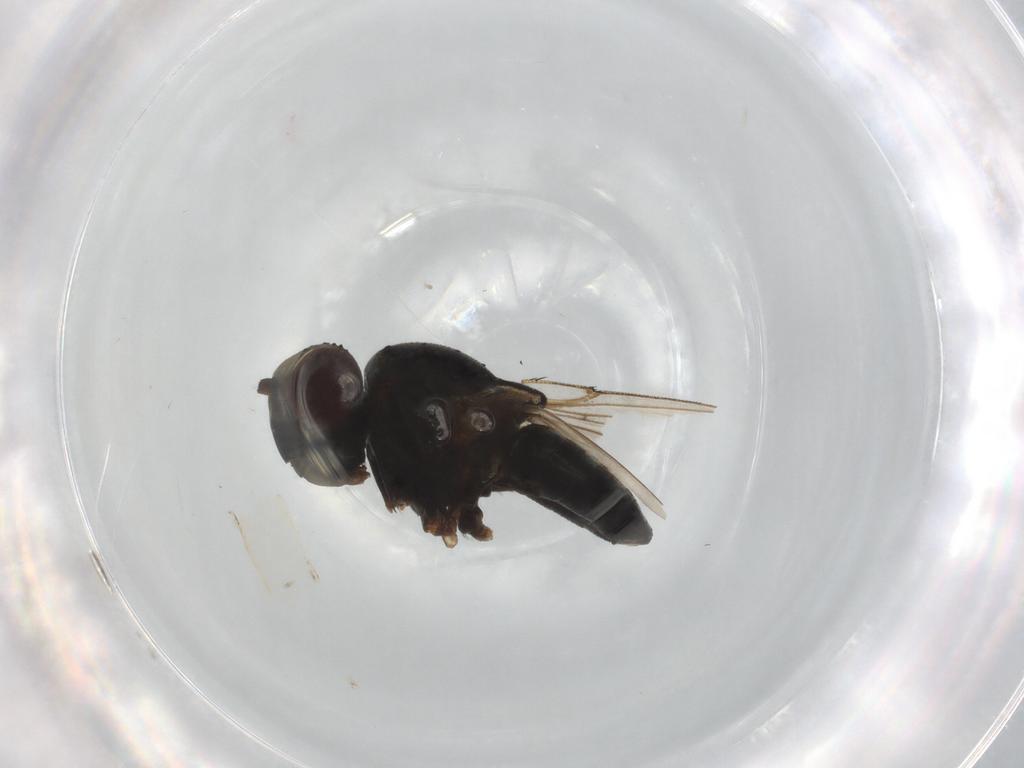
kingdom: Animalia
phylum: Arthropoda
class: Insecta
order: Diptera
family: Ephydridae
